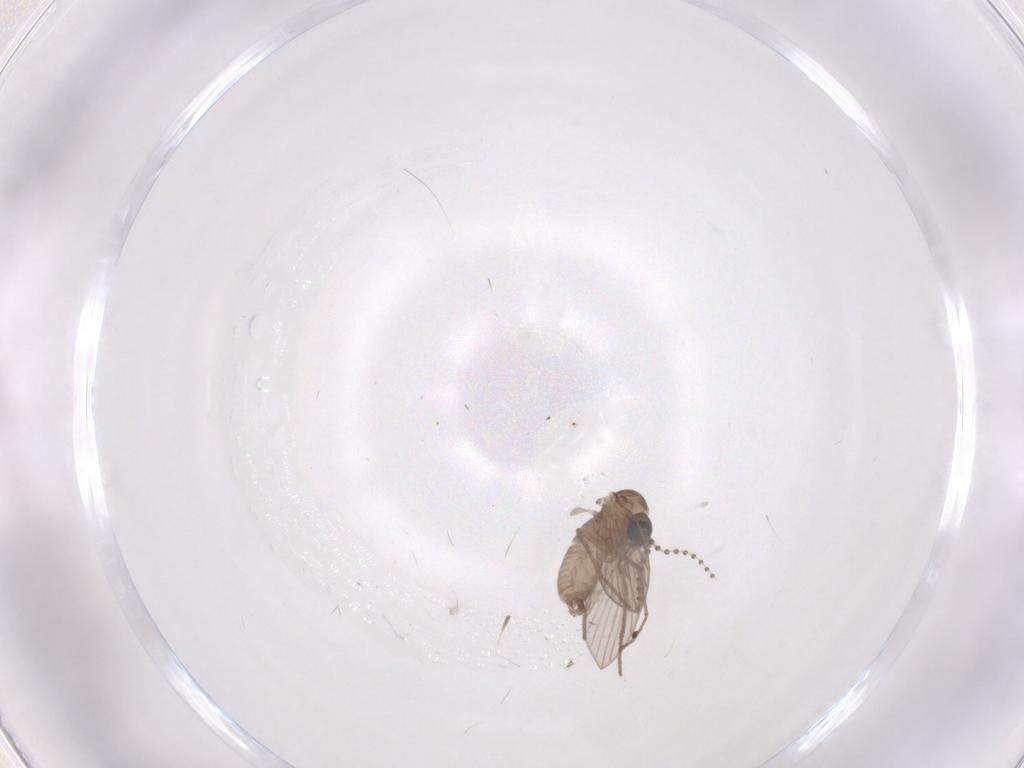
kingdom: Animalia
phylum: Arthropoda
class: Insecta
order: Diptera
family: Psychodidae
